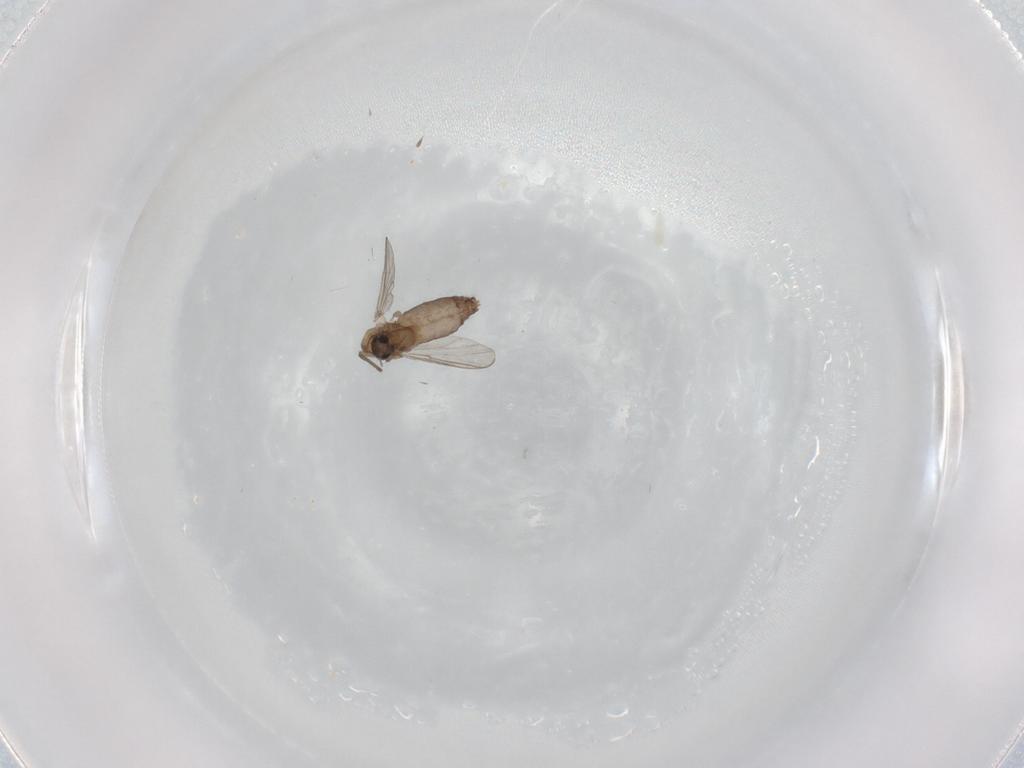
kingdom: Animalia
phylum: Arthropoda
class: Insecta
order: Diptera
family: Chironomidae
